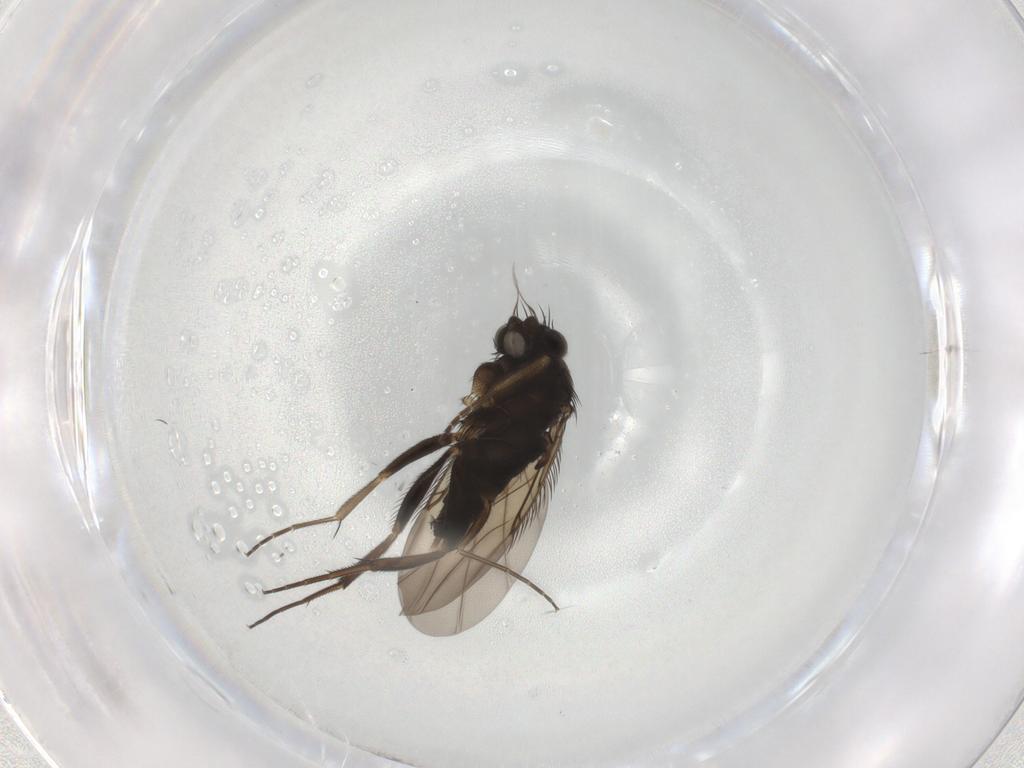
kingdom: Animalia
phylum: Arthropoda
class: Insecta
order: Diptera
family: Phoridae
